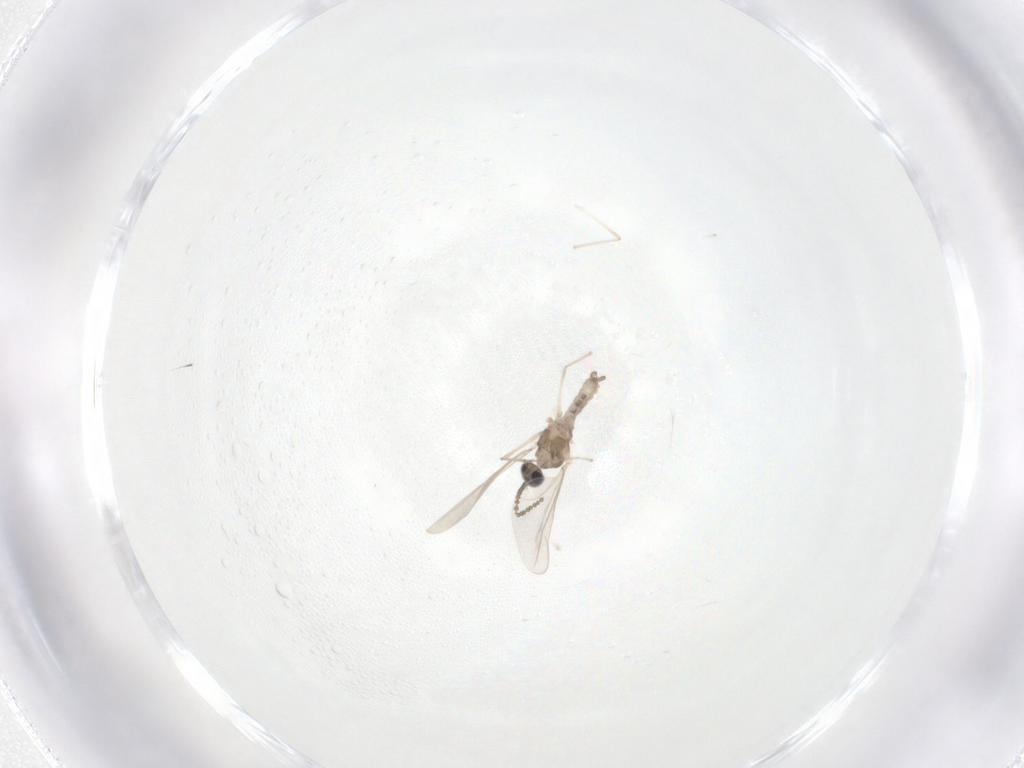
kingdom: Animalia
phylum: Arthropoda
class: Insecta
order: Diptera
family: Cecidomyiidae
